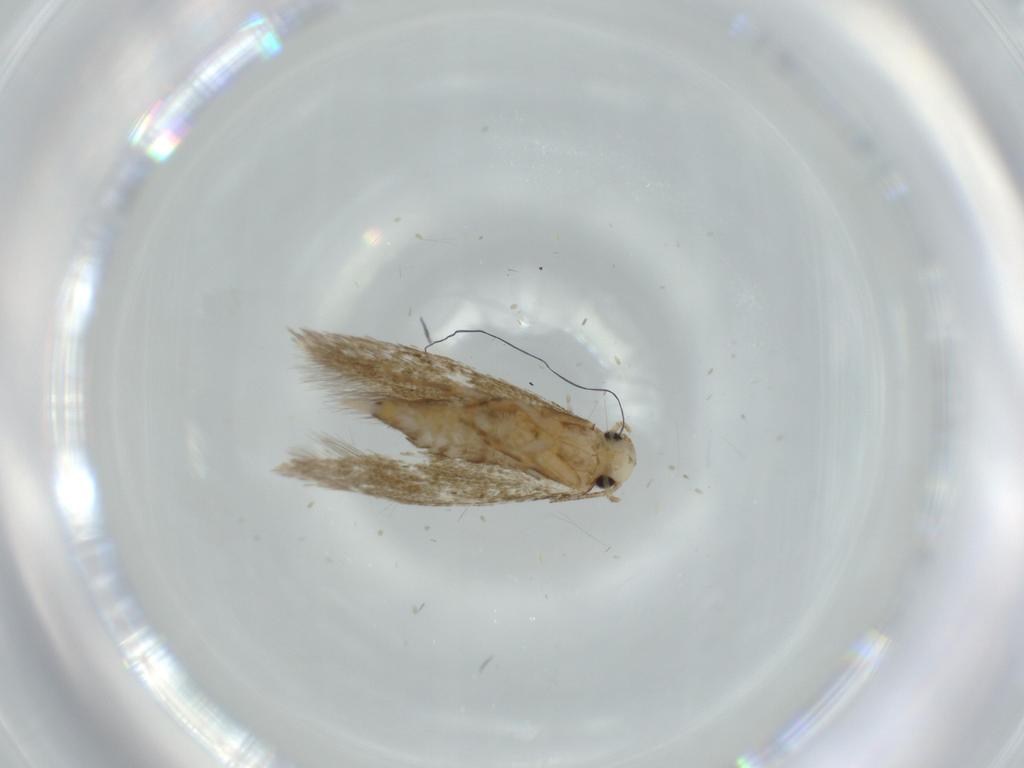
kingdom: Animalia
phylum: Arthropoda
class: Insecta
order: Lepidoptera
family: Tineidae
